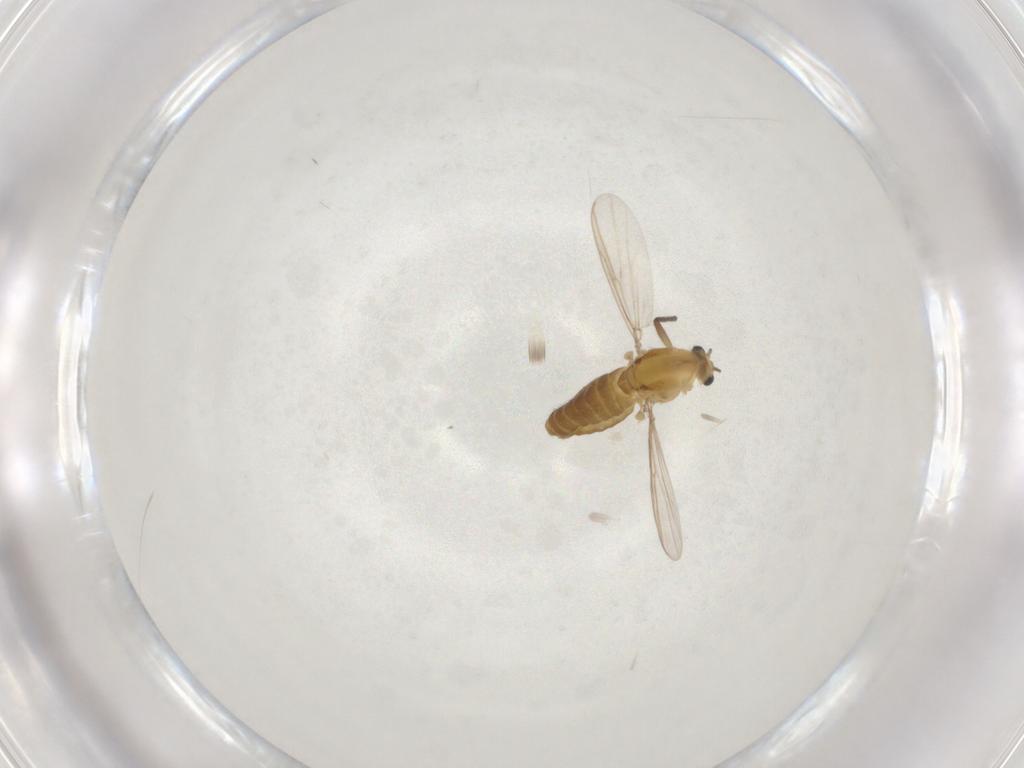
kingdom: Animalia
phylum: Arthropoda
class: Insecta
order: Diptera
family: Chironomidae
